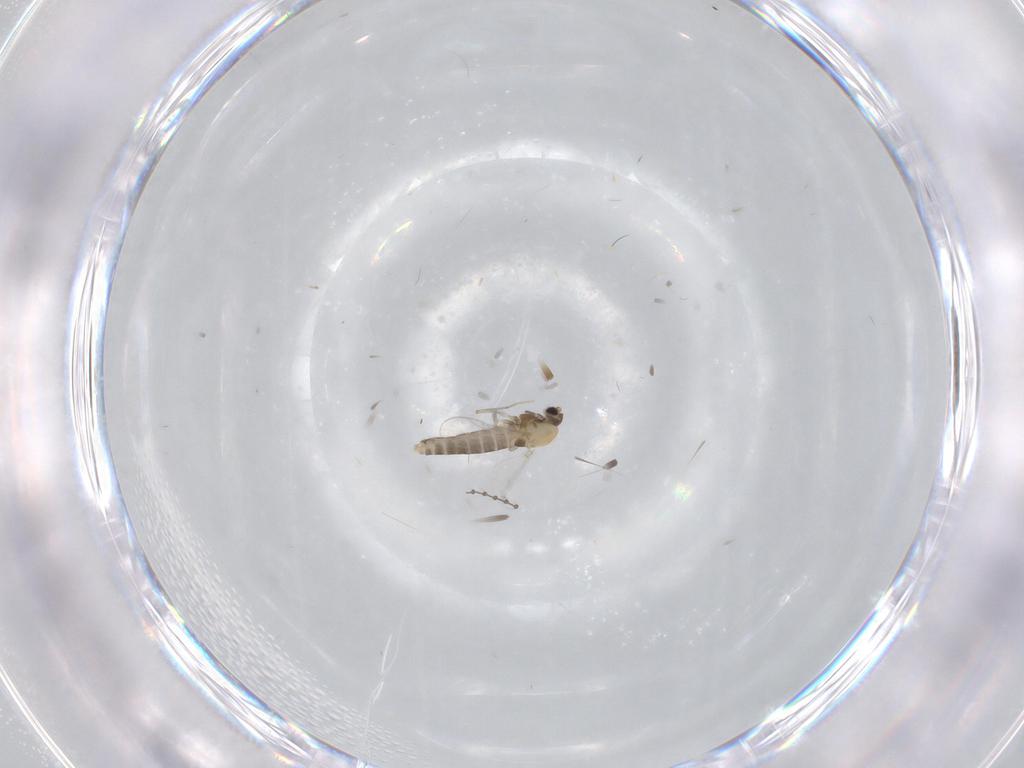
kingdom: Animalia
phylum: Arthropoda
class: Insecta
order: Diptera
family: Chironomidae
